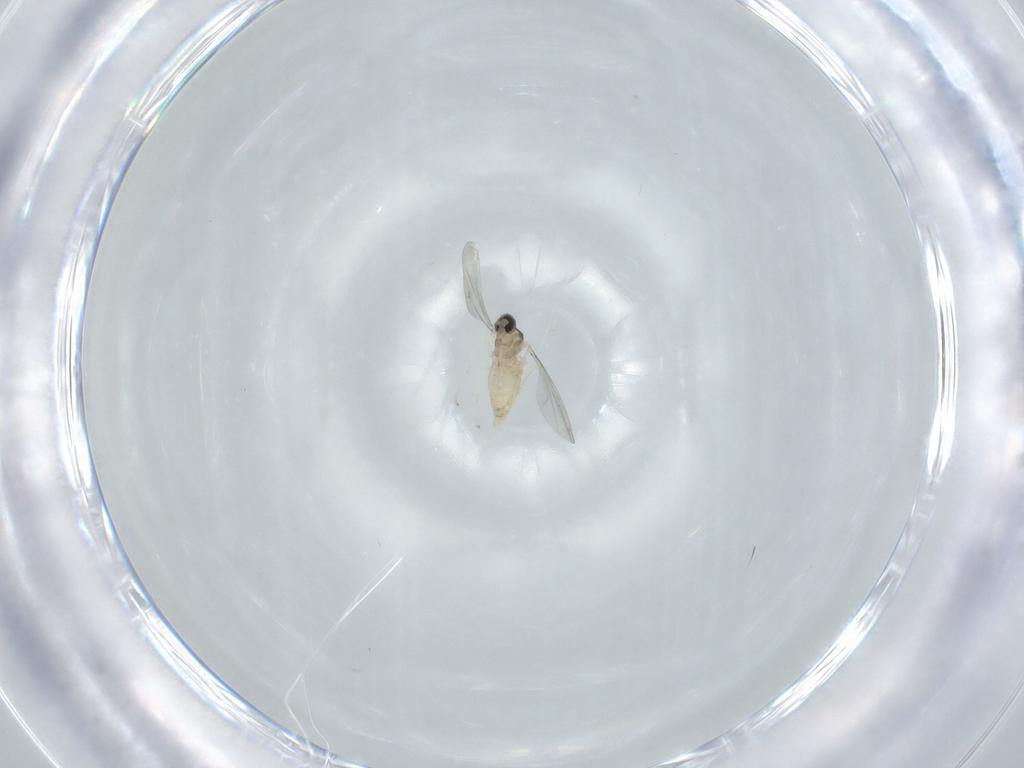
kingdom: Animalia
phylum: Arthropoda
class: Insecta
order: Diptera
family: Cecidomyiidae
